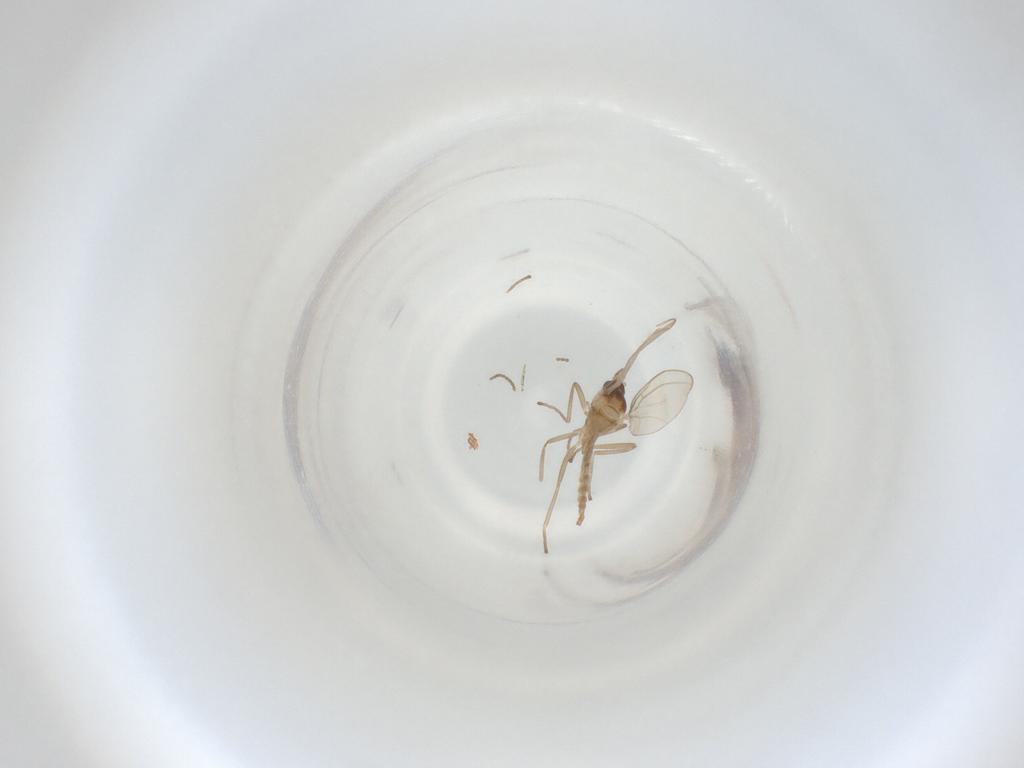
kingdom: Animalia
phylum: Arthropoda
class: Insecta
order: Diptera
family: Cecidomyiidae
